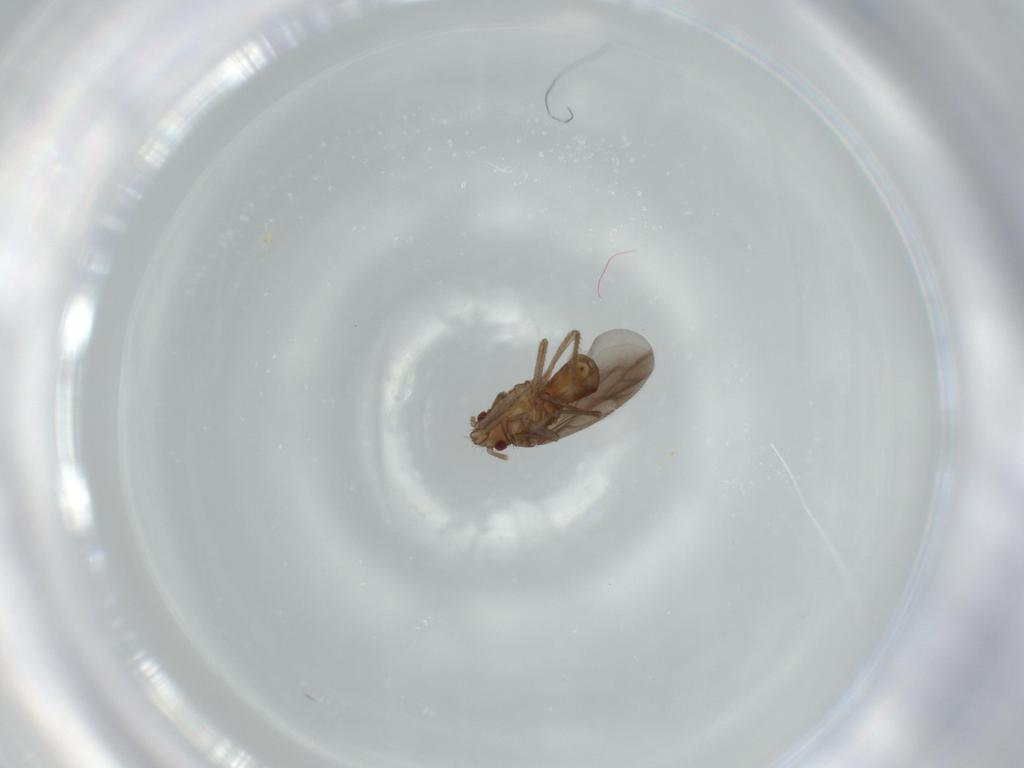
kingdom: Animalia
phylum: Arthropoda
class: Insecta
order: Hemiptera
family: Ceratocombidae
